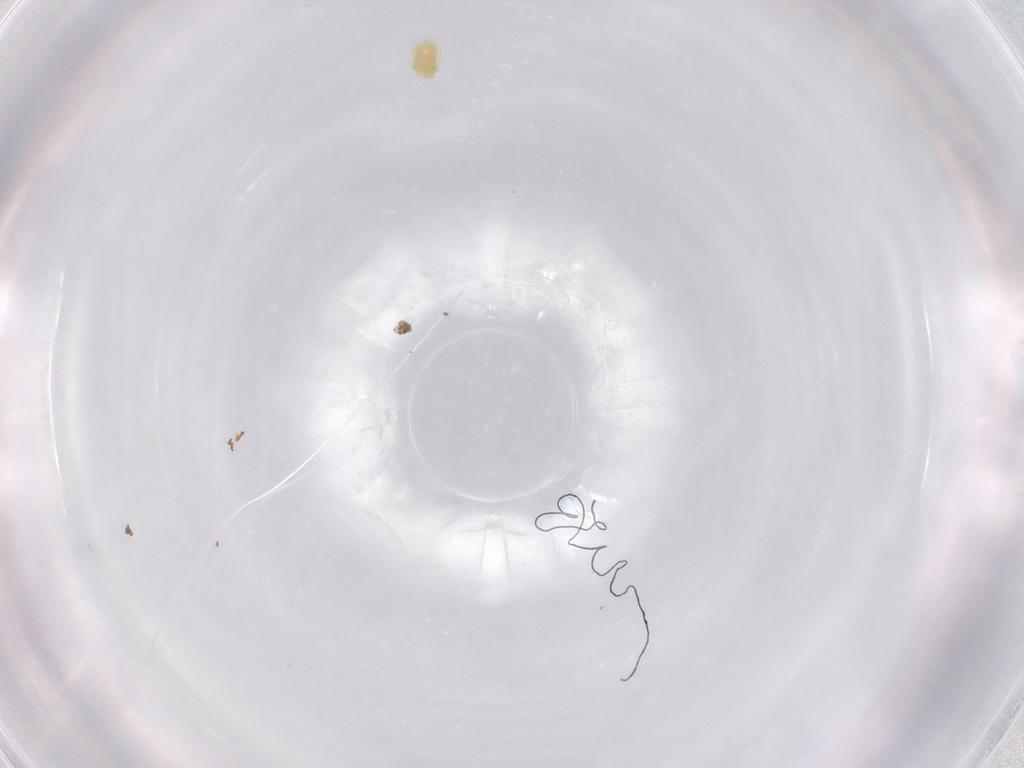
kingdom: Animalia
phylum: Arthropoda
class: Arachnida
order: Trombidiformes
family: Eupodidae
